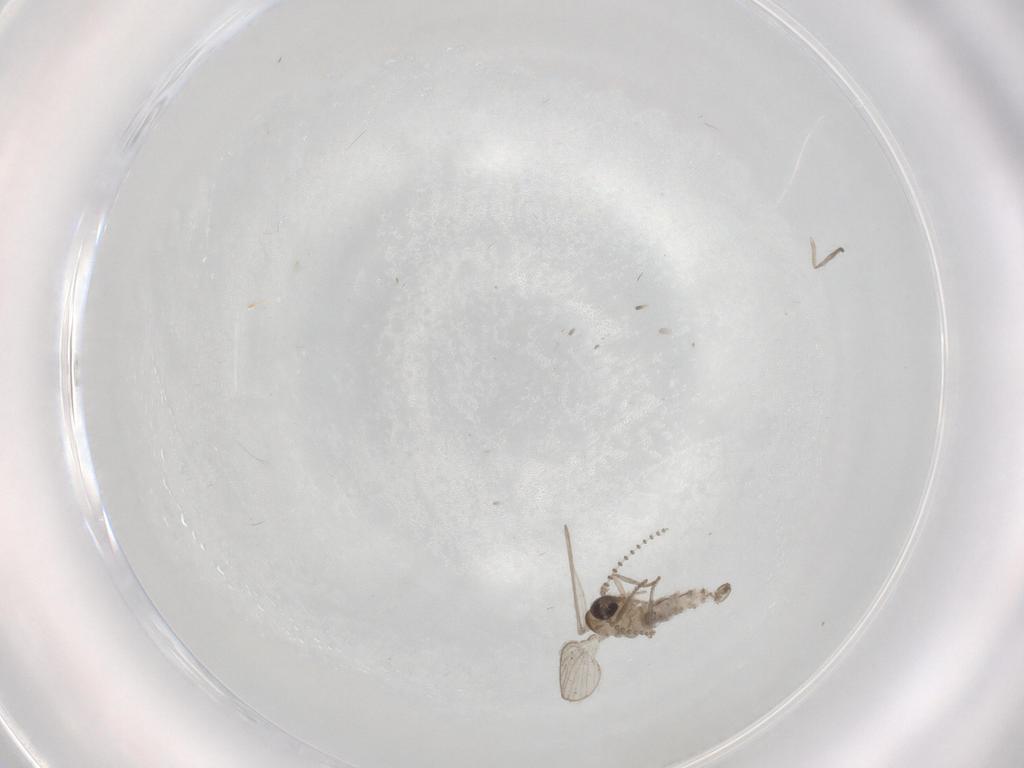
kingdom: Animalia
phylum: Arthropoda
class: Insecta
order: Diptera
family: Psychodidae
